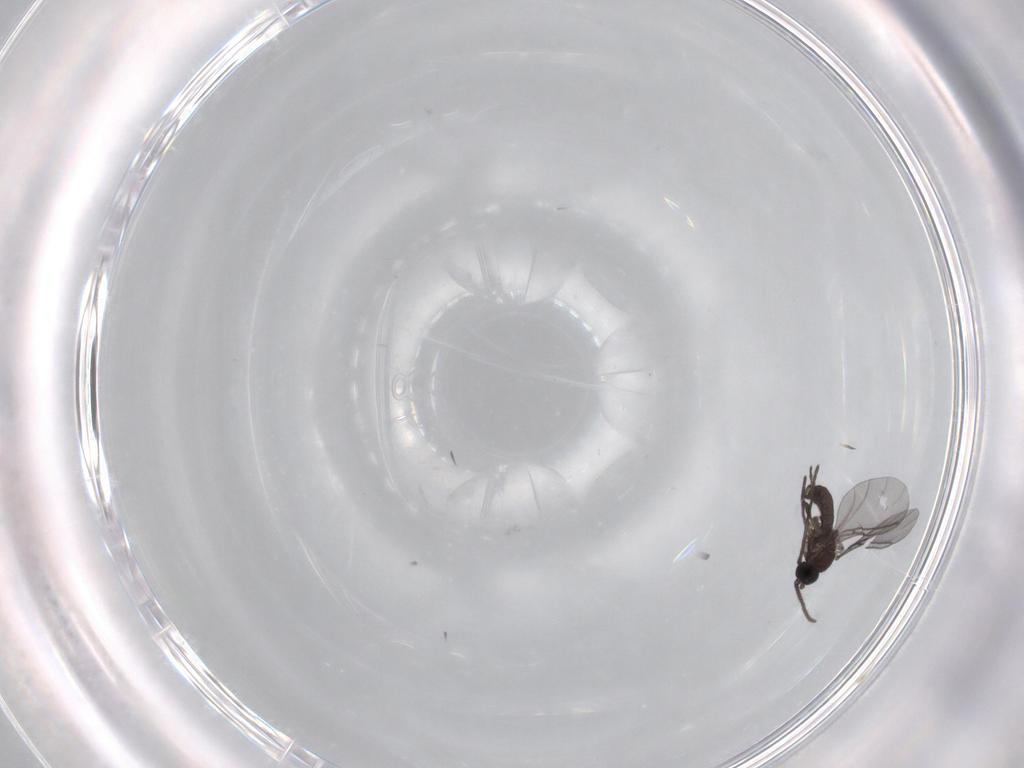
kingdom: Animalia
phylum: Arthropoda
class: Insecta
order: Diptera
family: Sciaridae
